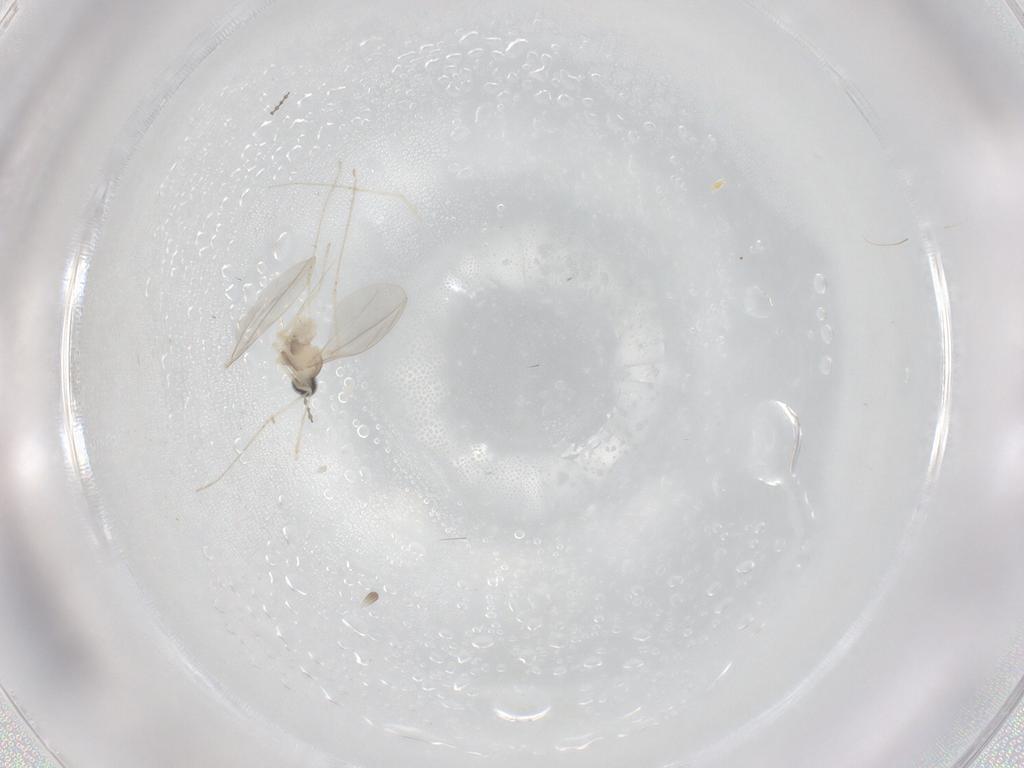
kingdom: Animalia
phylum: Arthropoda
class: Insecta
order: Diptera
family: Cecidomyiidae
